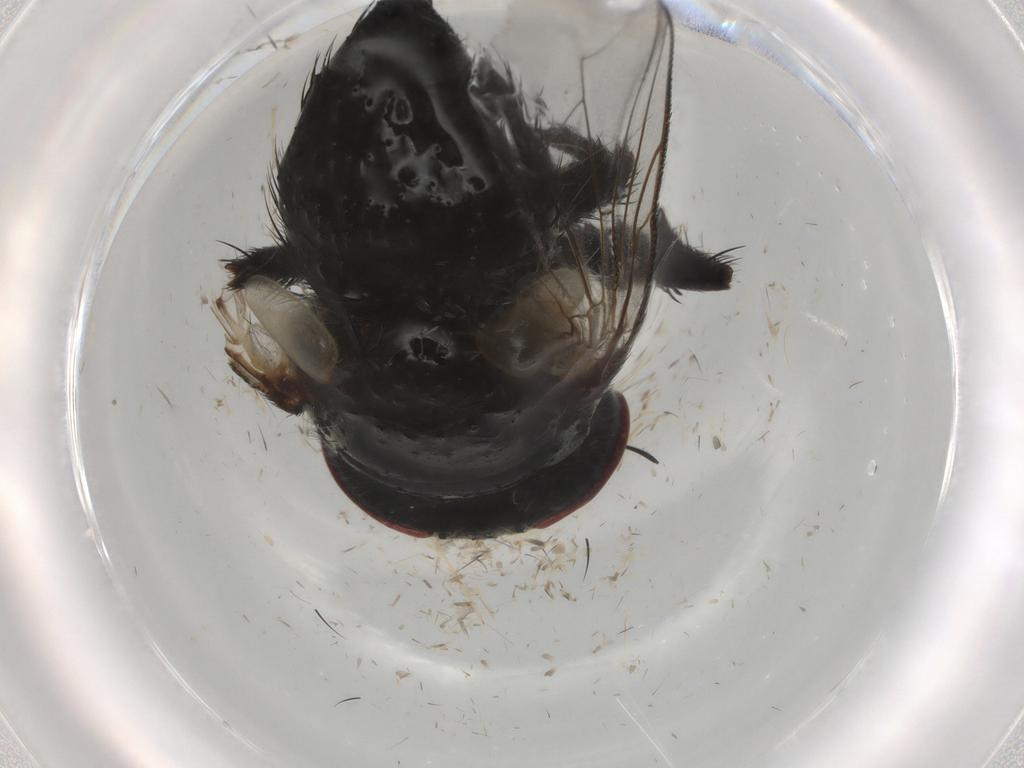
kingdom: Animalia
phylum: Arthropoda
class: Insecta
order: Diptera
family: Tachinidae
